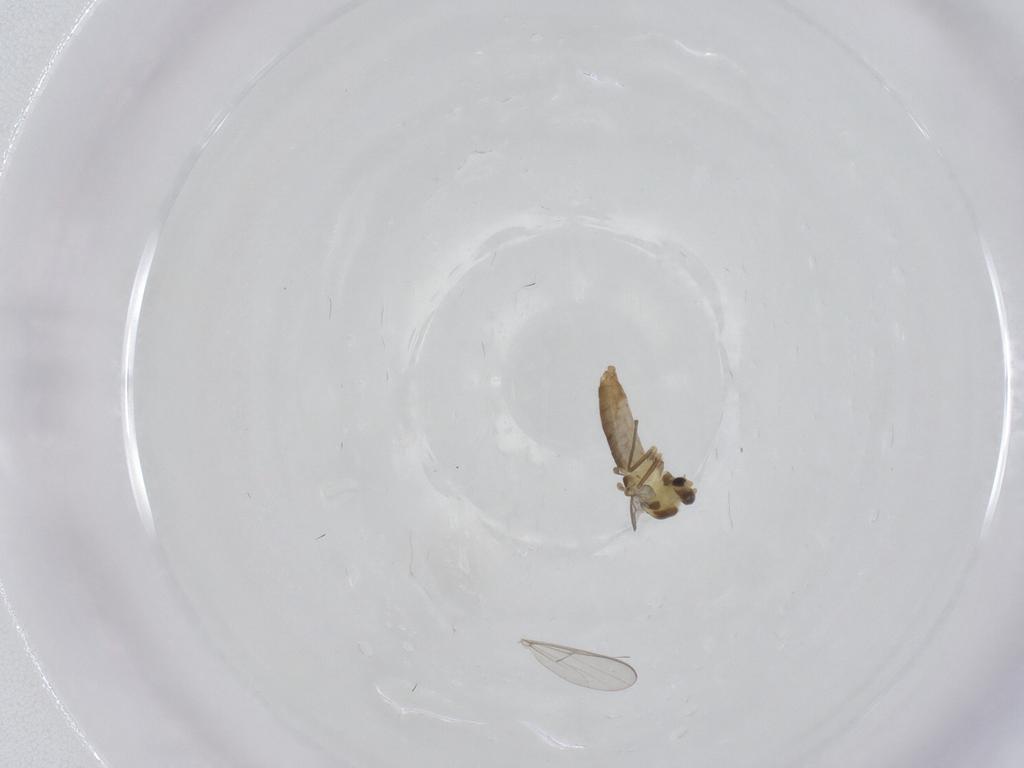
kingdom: Animalia
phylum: Arthropoda
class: Insecta
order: Diptera
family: Chironomidae
